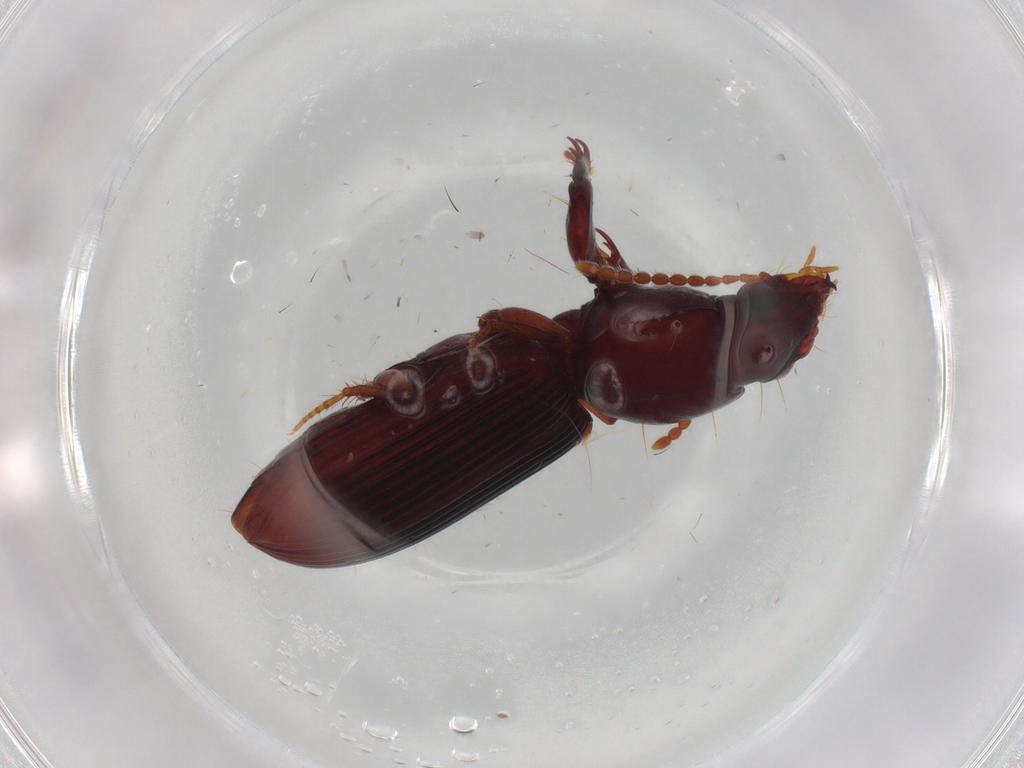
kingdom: Animalia
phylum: Arthropoda
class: Insecta
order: Coleoptera
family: Carabidae
